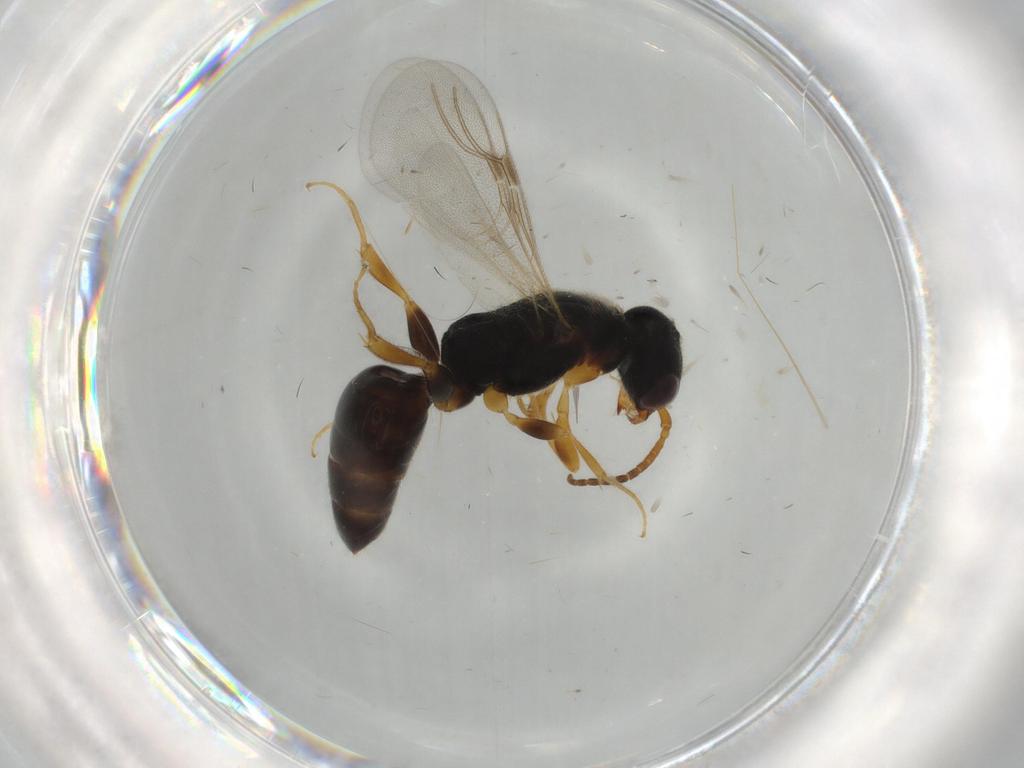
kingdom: Animalia
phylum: Arthropoda
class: Insecta
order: Hymenoptera
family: Bethylidae
